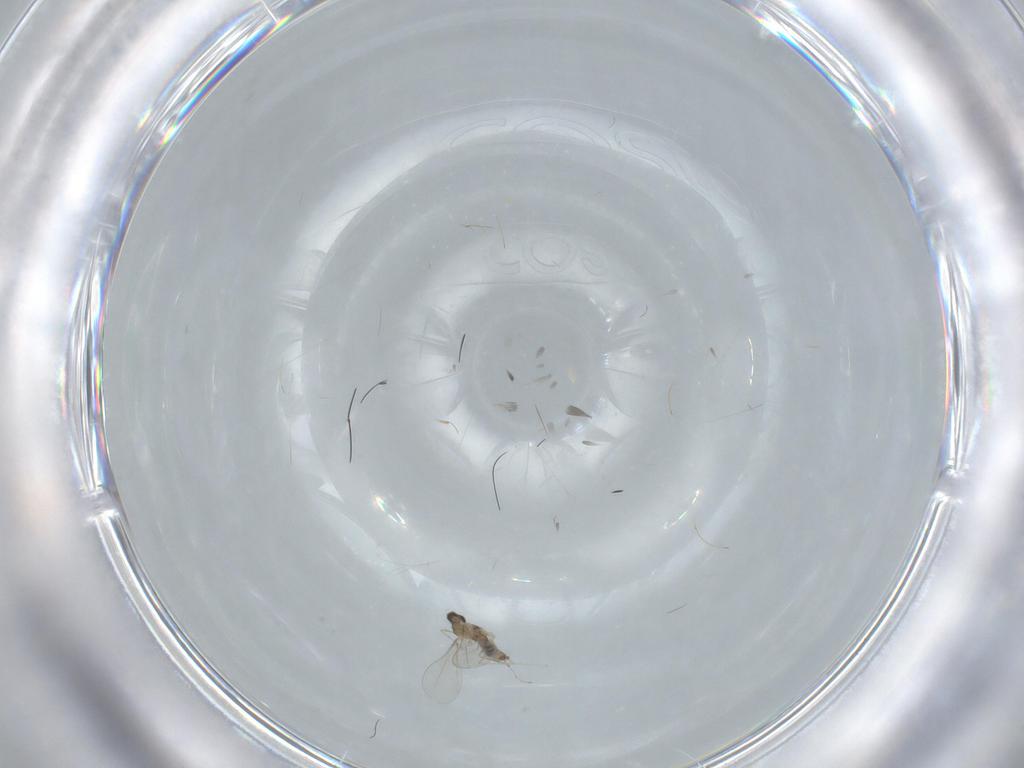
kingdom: Animalia
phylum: Arthropoda
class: Insecta
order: Diptera
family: Cecidomyiidae
